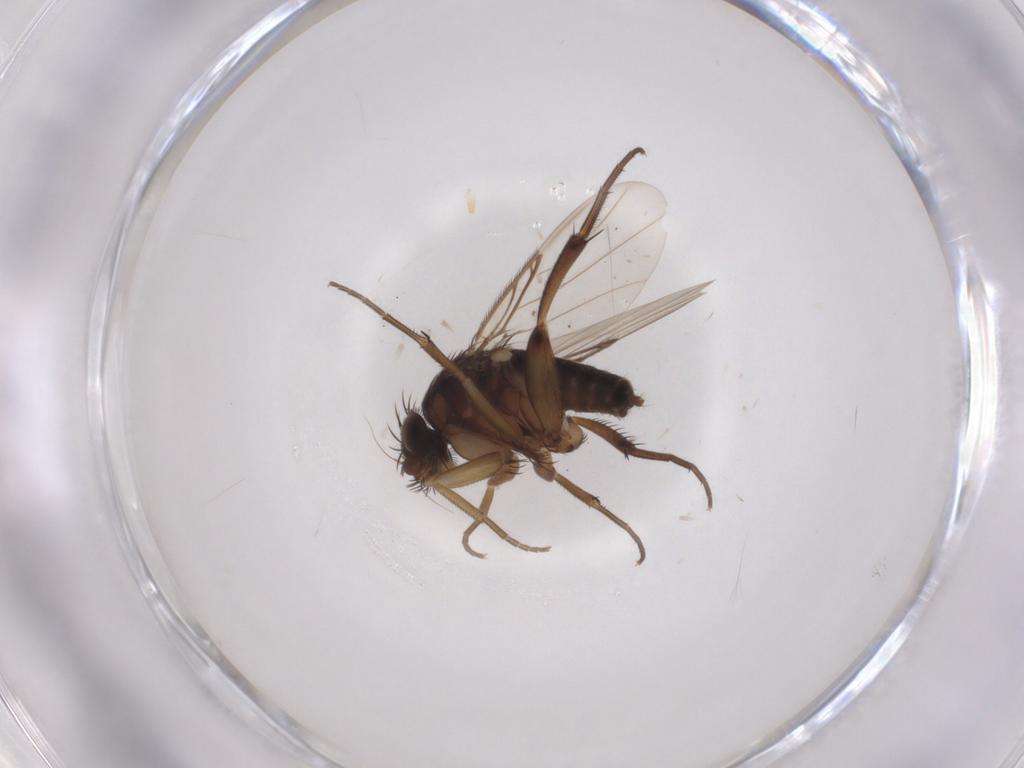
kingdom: Animalia
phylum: Arthropoda
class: Insecta
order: Diptera
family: Phoridae
